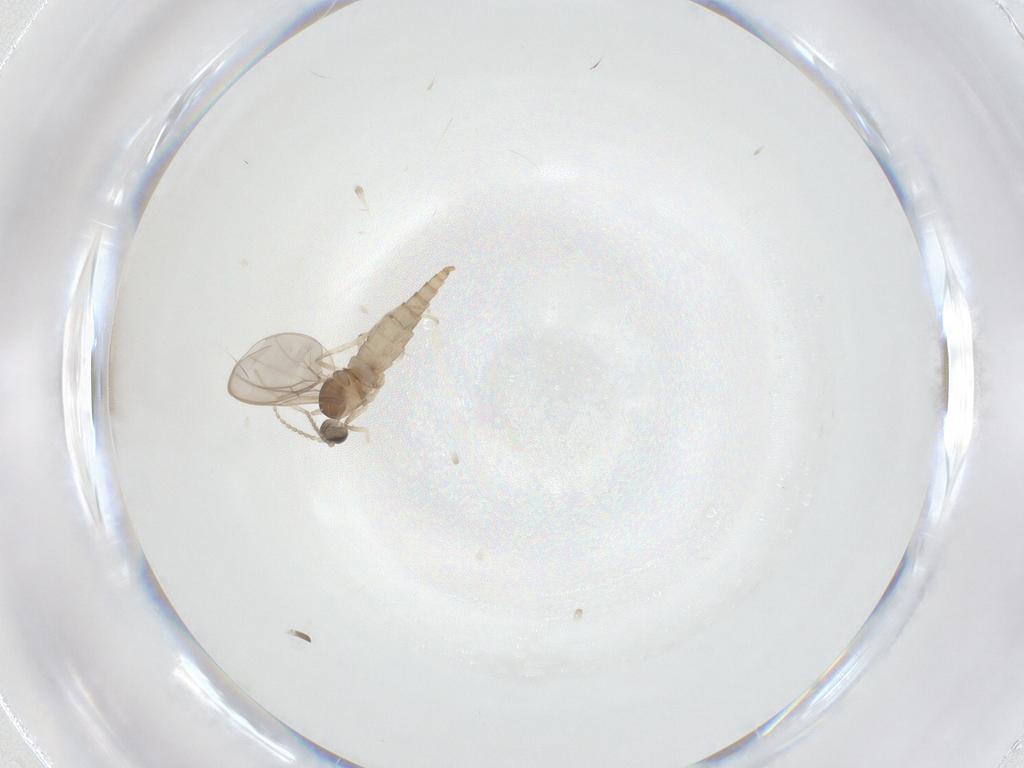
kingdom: Animalia
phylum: Arthropoda
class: Insecta
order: Diptera
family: Cecidomyiidae
